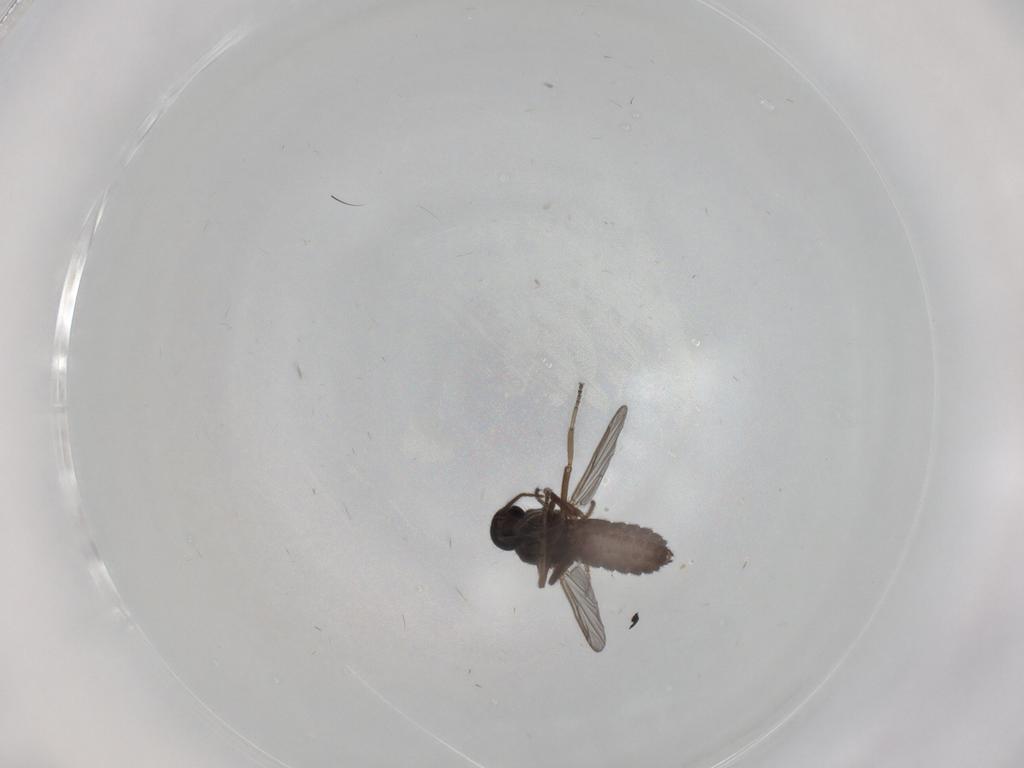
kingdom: Animalia
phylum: Arthropoda
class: Insecta
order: Diptera
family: Ceratopogonidae
